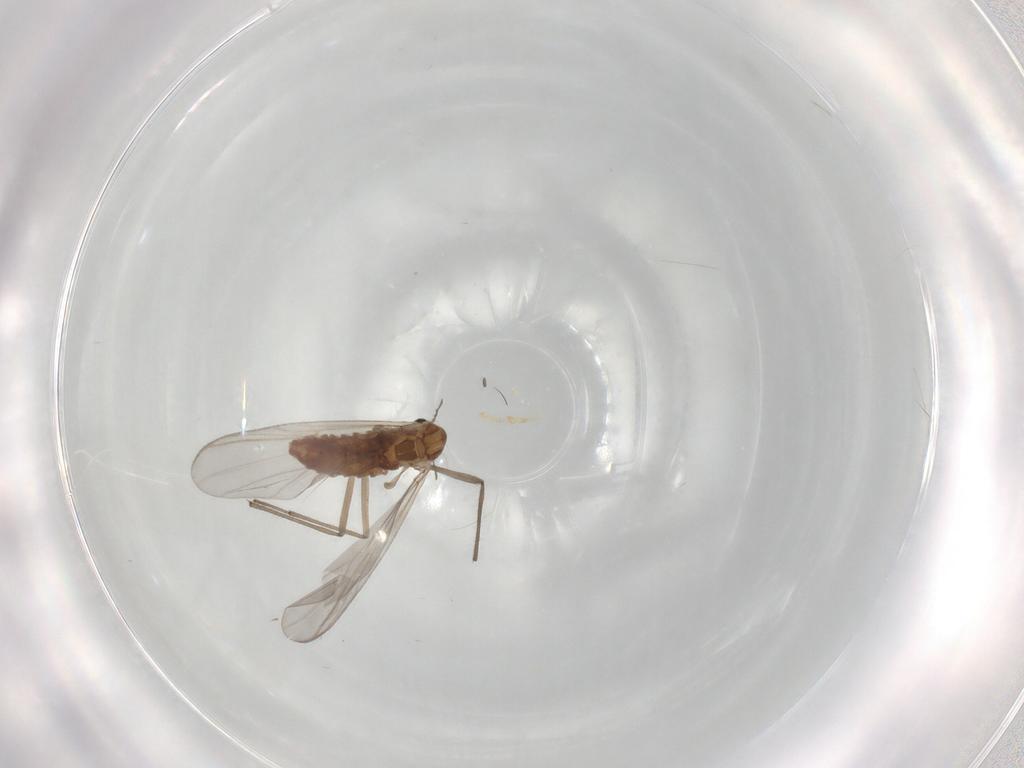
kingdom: Animalia
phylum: Arthropoda
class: Insecta
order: Diptera
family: Chironomidae
